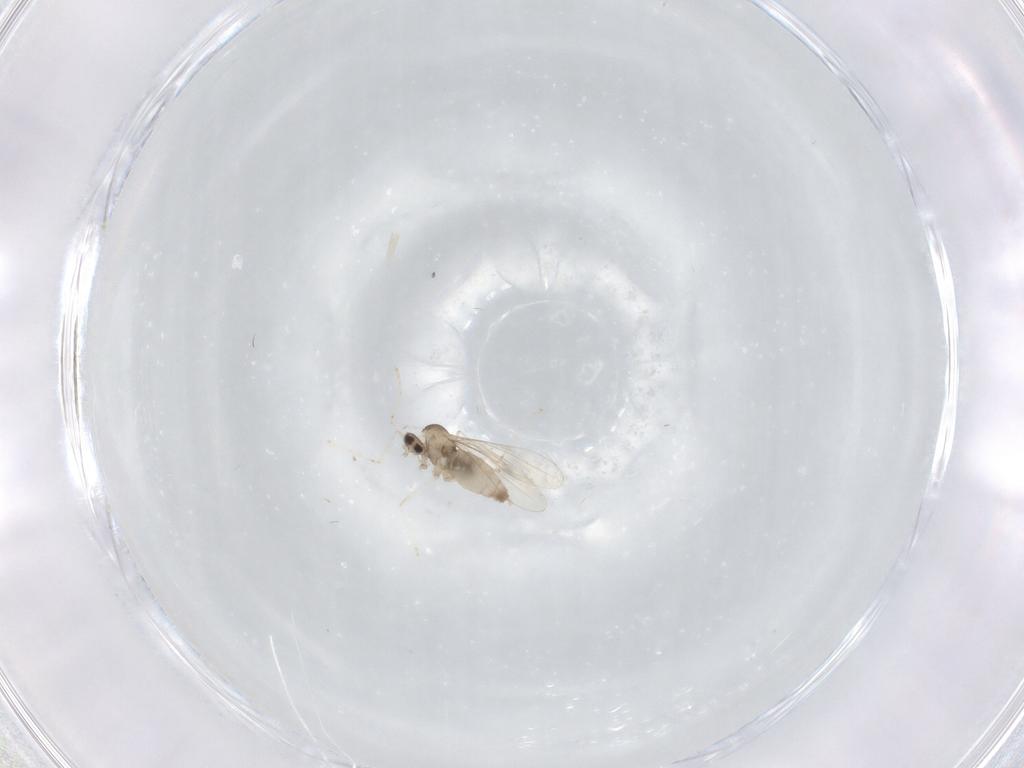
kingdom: Animalia
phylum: Arthropoda
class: Insecta
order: Diptera
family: Cecidomyiidae
